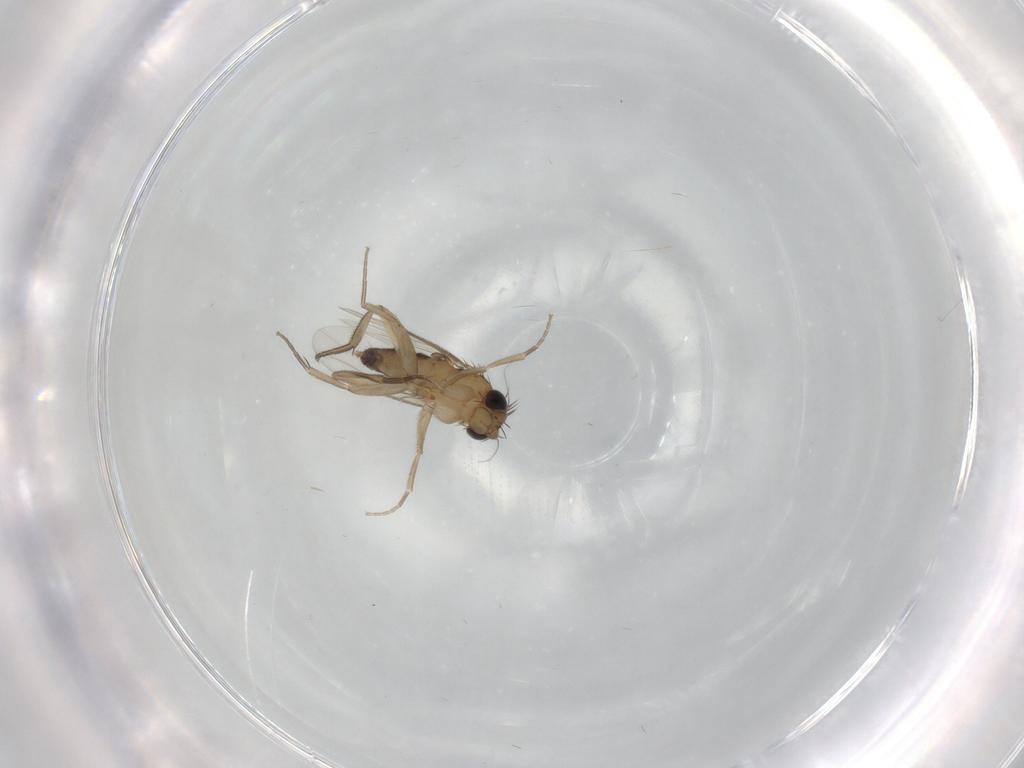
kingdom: Animalia
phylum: Arthropoda
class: Insecta
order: Diptera
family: Phoridae
